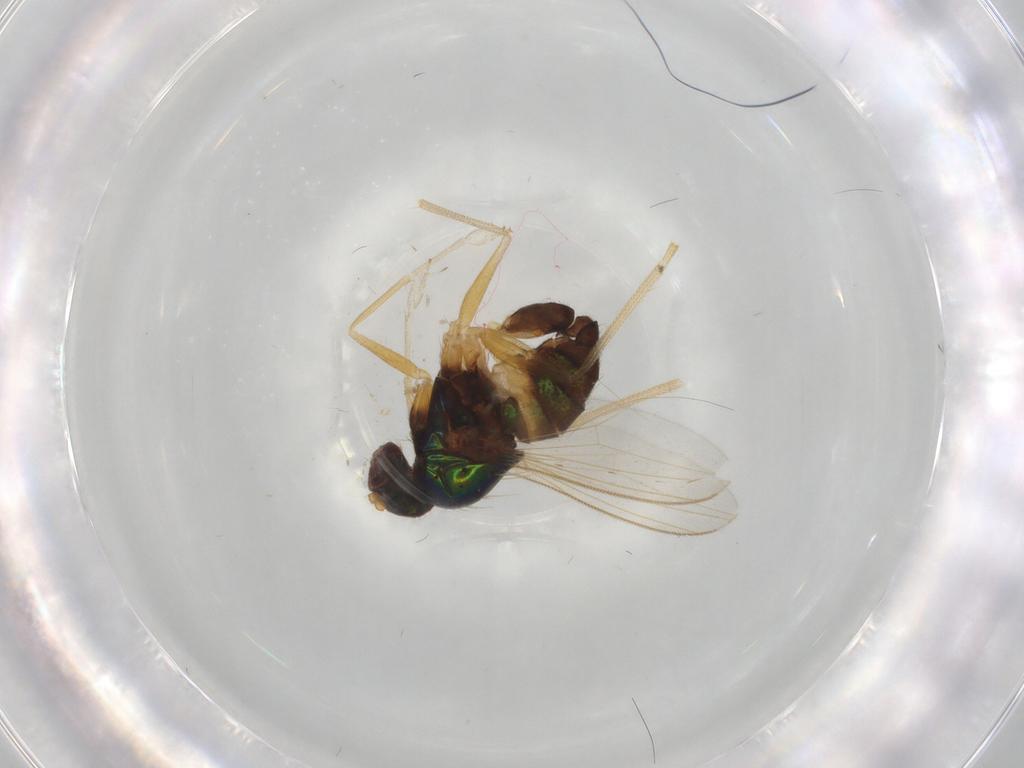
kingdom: Animalia
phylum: Arthropoda
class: Insecta
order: Diptera
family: Dolichopodidae
